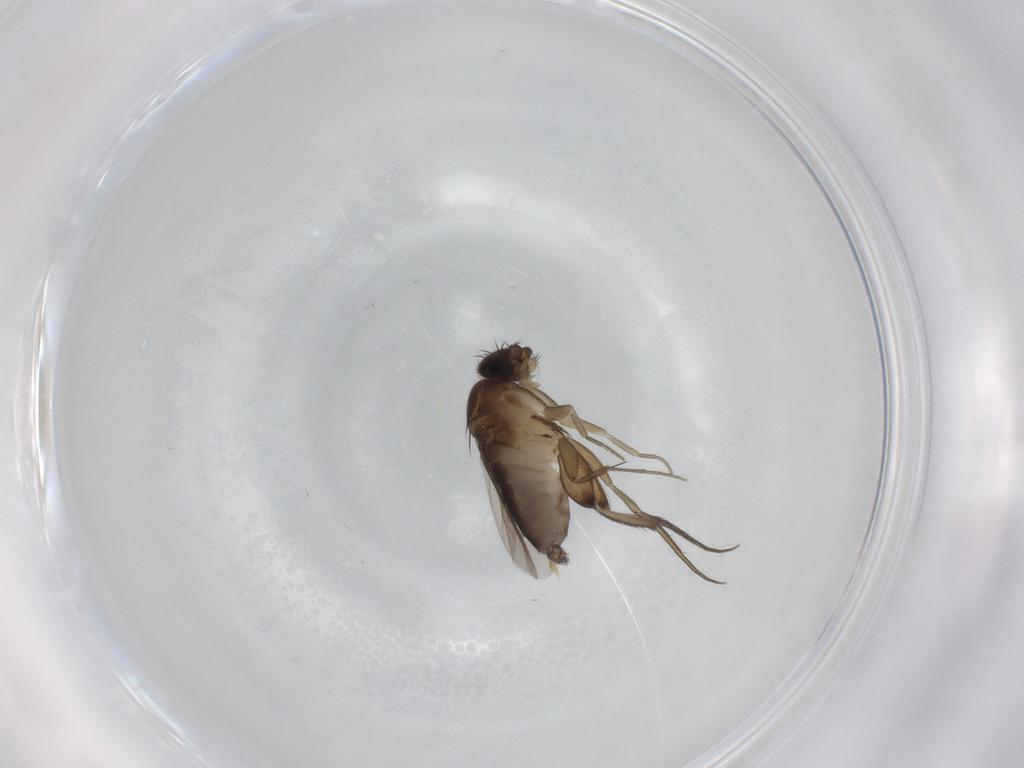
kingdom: Animalia
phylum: Arthropoda
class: Insecta
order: Diptera
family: Phoridae
